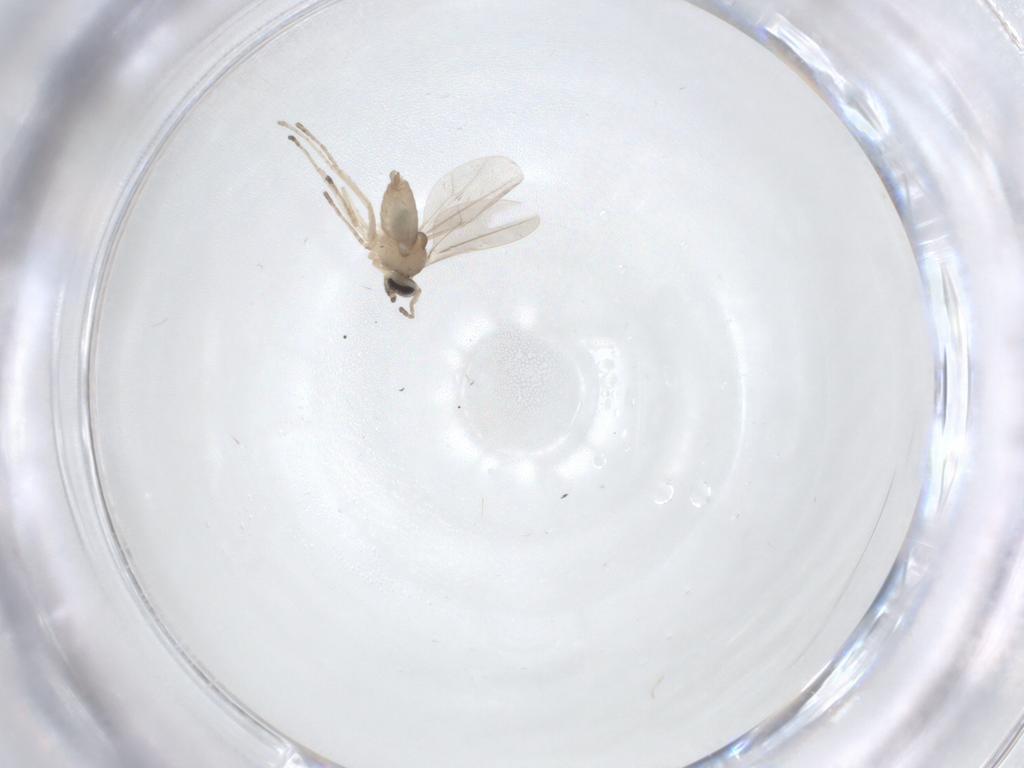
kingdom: Animalia
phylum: Arthropoda
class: Insecta
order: Diptera
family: Cecidomyiidae
